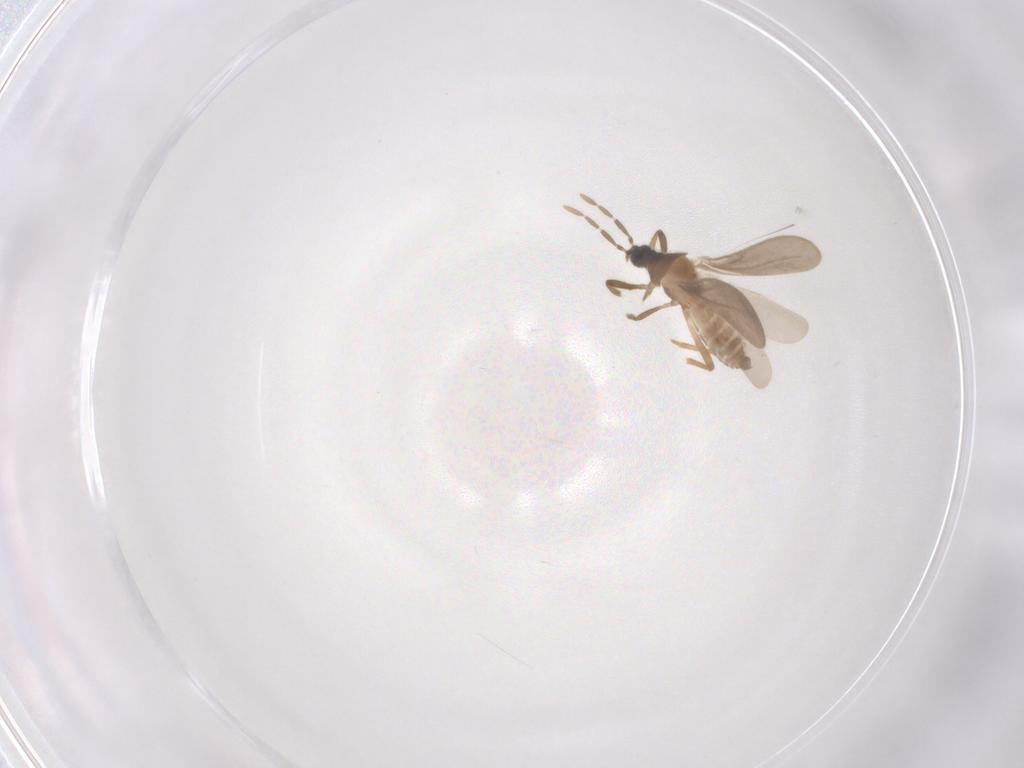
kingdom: Animalia
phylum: Arthropoda
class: Insecta
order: Hemiptera
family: Enicocephalidae
